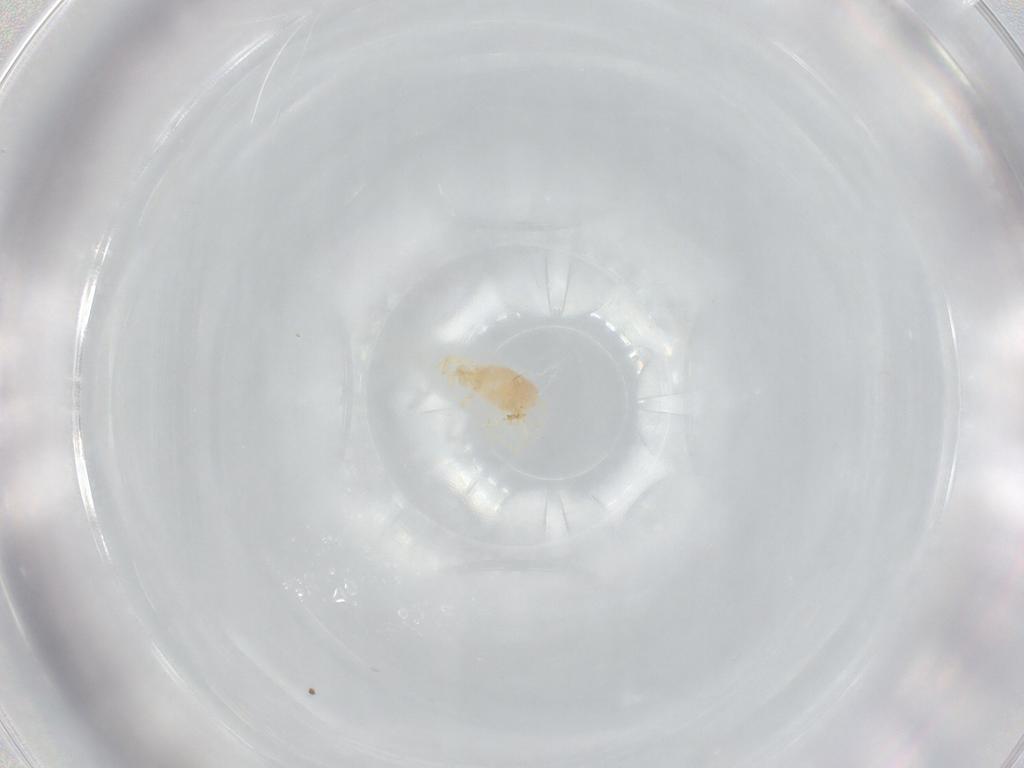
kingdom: Animalia
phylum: Arthropoda
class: Arachnida
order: Trombidiformes
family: Erythraeidae
